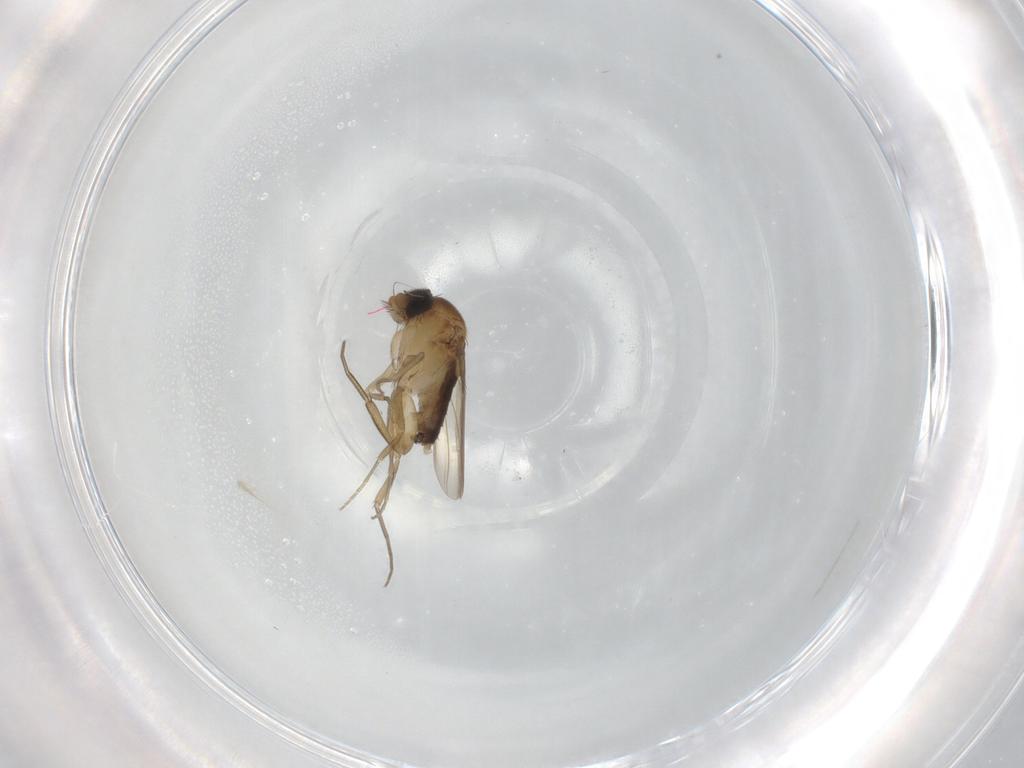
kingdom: Animalia
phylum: Arthropoda
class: Insecta
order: Diptera
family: Phoridae
